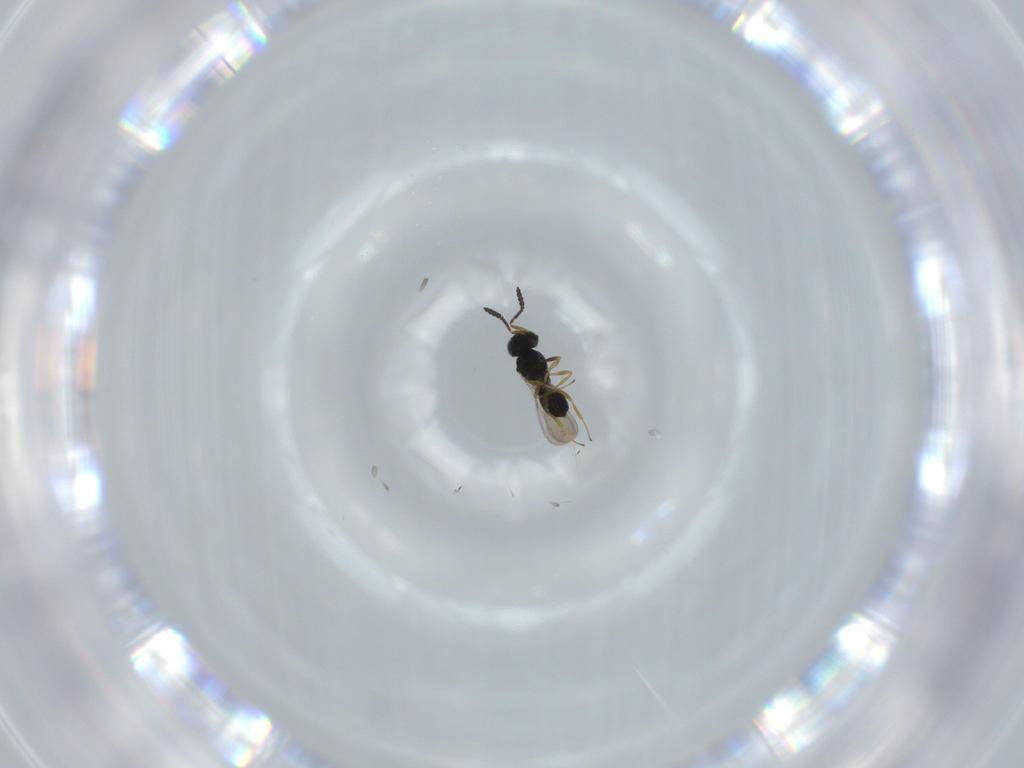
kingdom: Animalia
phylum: Arthropoda
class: Insecta
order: Hymenoptera
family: Scelionidae
